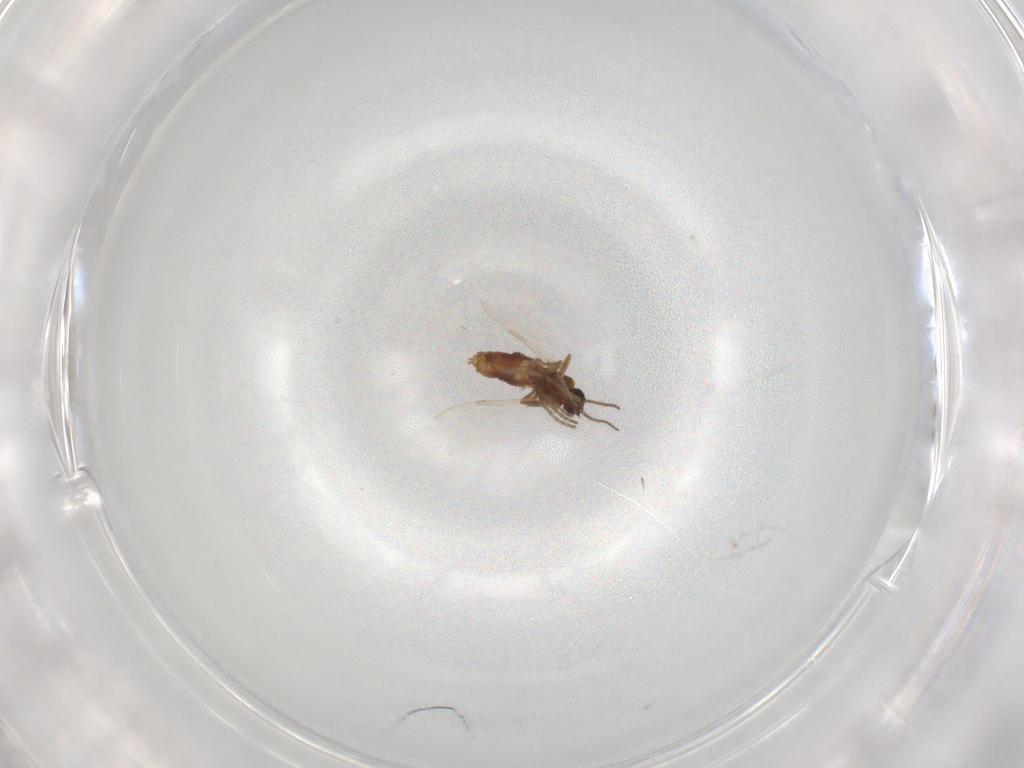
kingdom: Animalia
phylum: Arthropoda
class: Insecta
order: Diptera
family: Ceratopogonidae
